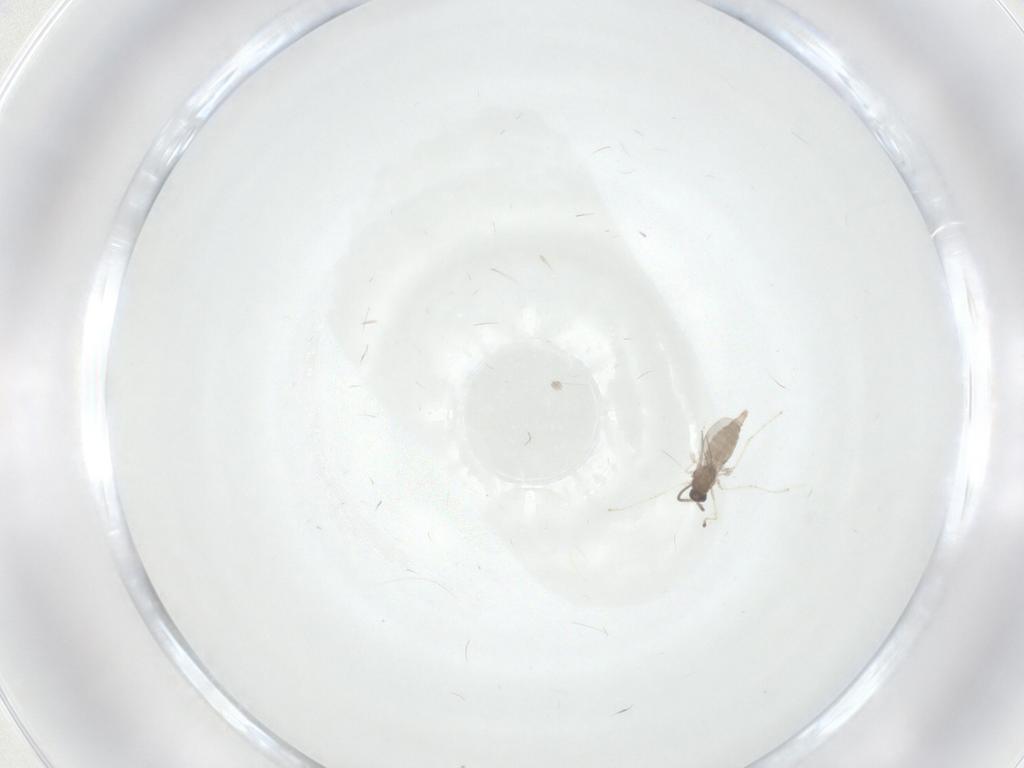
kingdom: Animalia
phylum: Arthropoda
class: Insecta
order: Diptera
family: Cecidomyiidae
